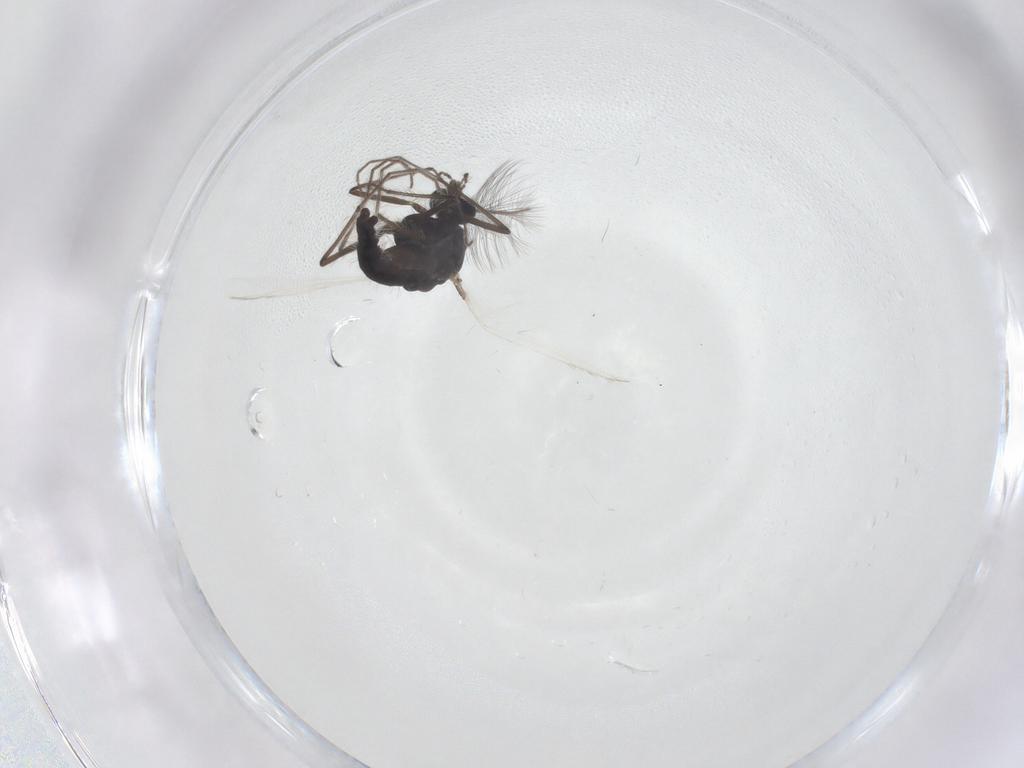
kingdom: Animalia
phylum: Arthropoda
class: Insecta
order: Diptera
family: Chironomidae
